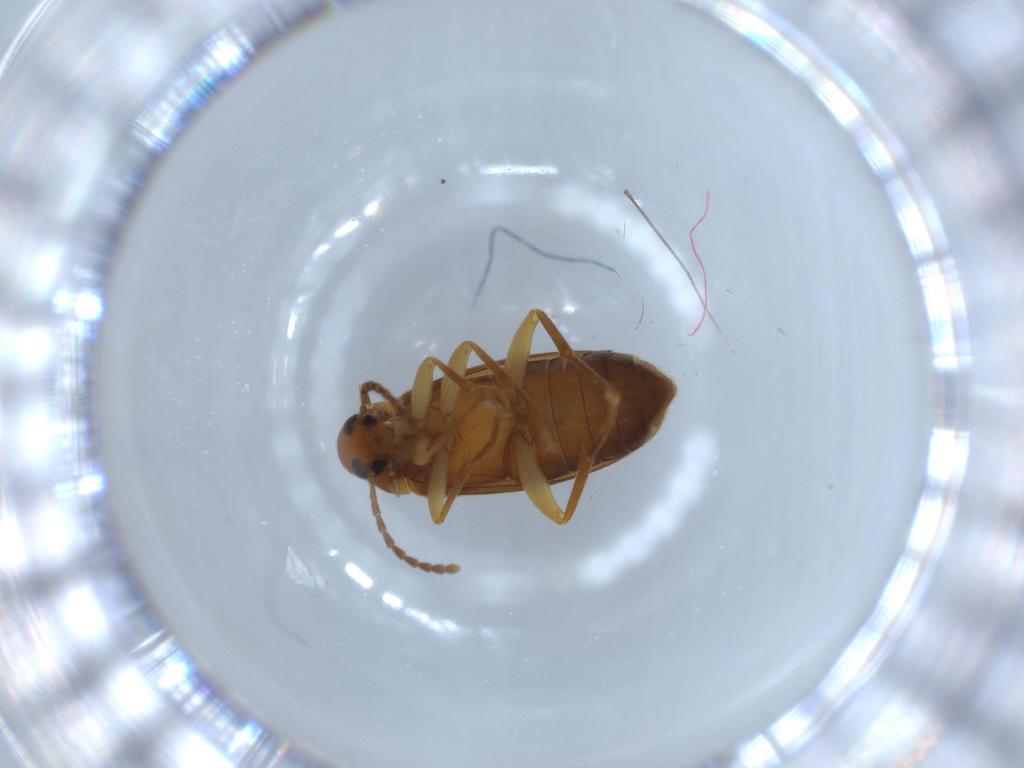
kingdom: Animalia
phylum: Arthropoda
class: Insecta
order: Coleoptera
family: Scraptiidae
